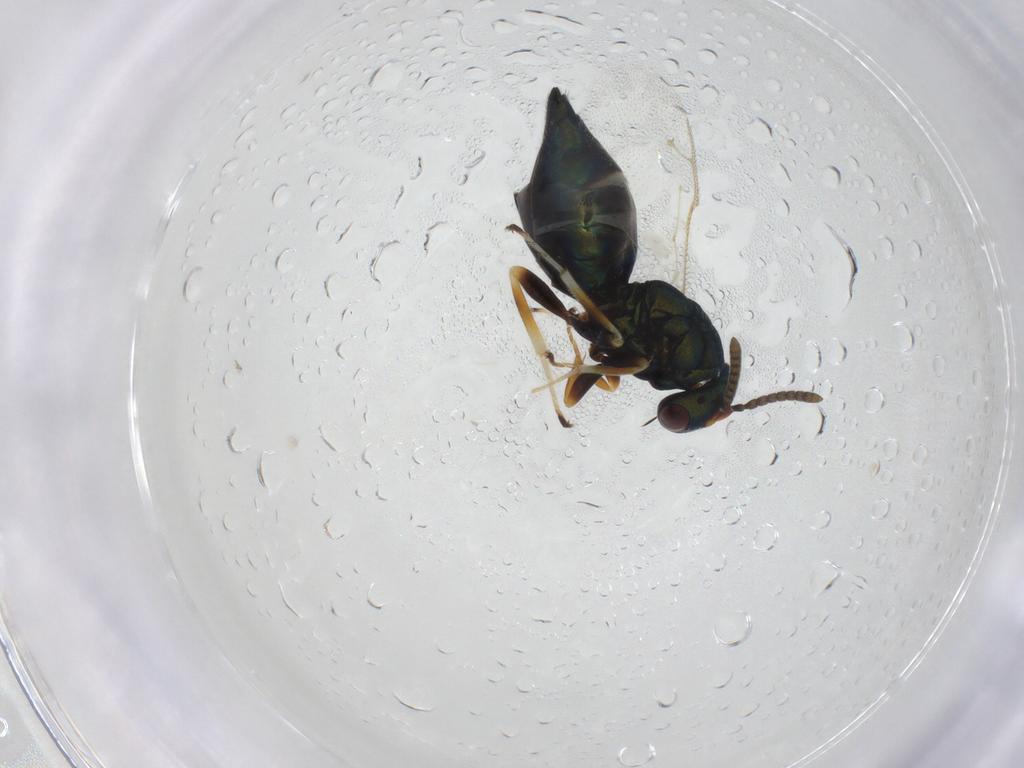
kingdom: Animalia
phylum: Arthropoda
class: Insecta
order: Hymenoptera
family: Pteromalidae
